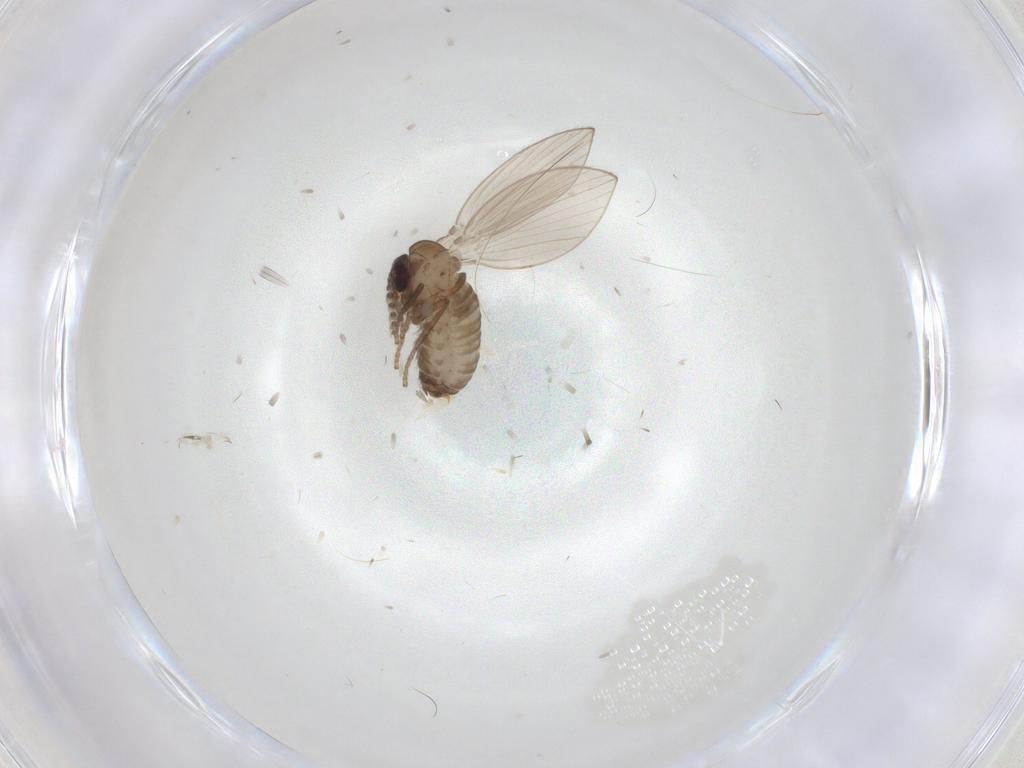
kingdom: Animalia
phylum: Arthropoda
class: Insecta
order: Diptera
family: Psychodidae
